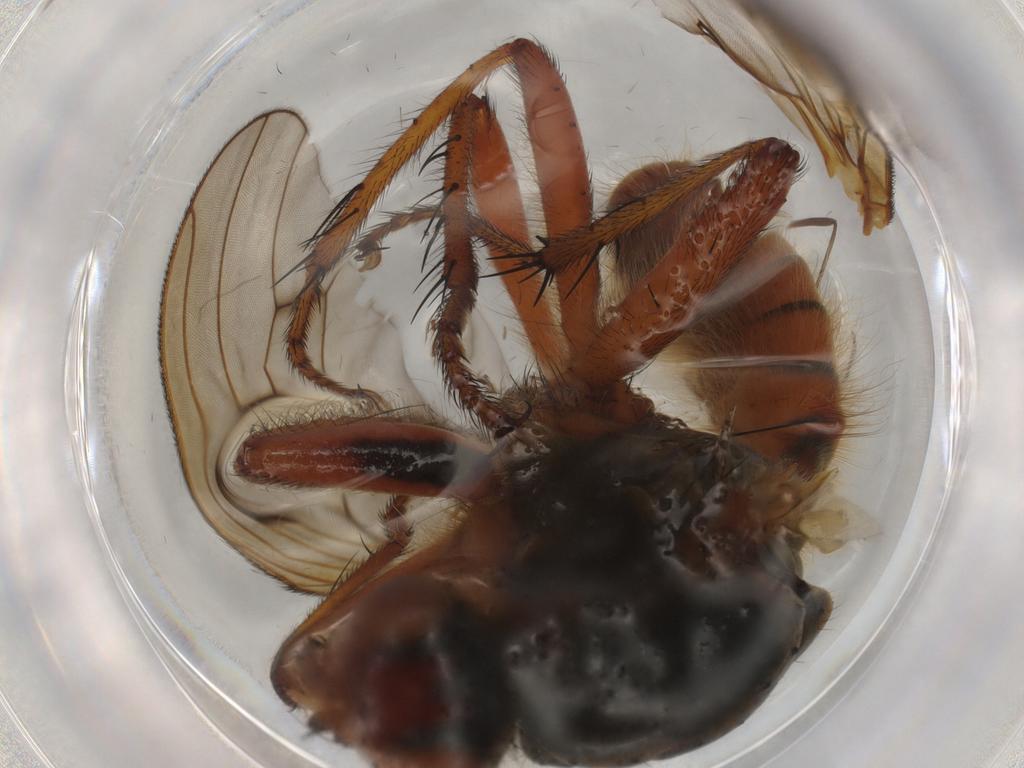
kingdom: Animalia
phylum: Arthropoda
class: Insecta
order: Diptera
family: Scathophagidae
